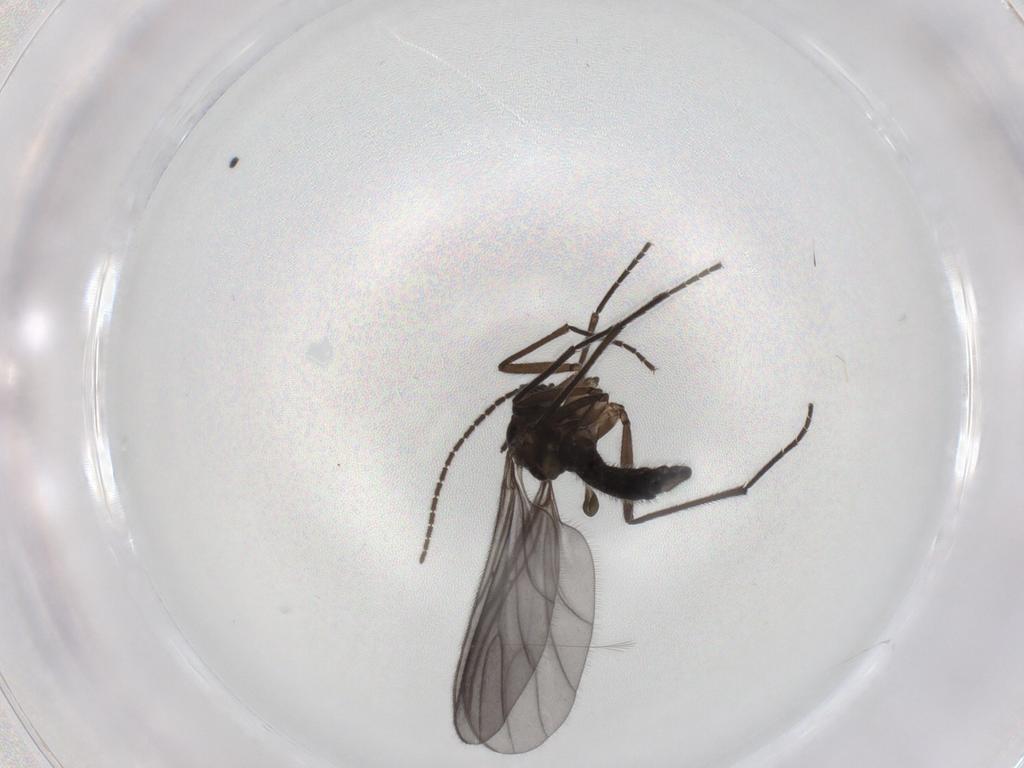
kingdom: Animalia
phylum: Arthropoda
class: Insecta
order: Diptera
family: Sciaridae
